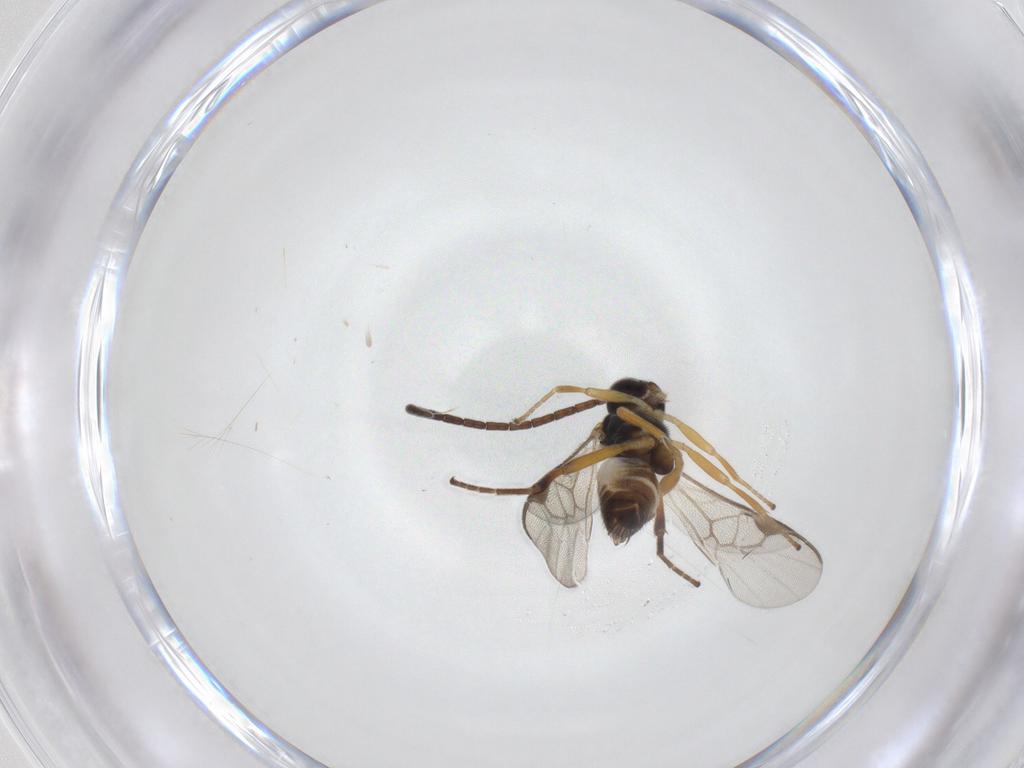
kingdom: Animalia
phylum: Arthropoda
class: Insecta
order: Hymenoptera
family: Braconidae
